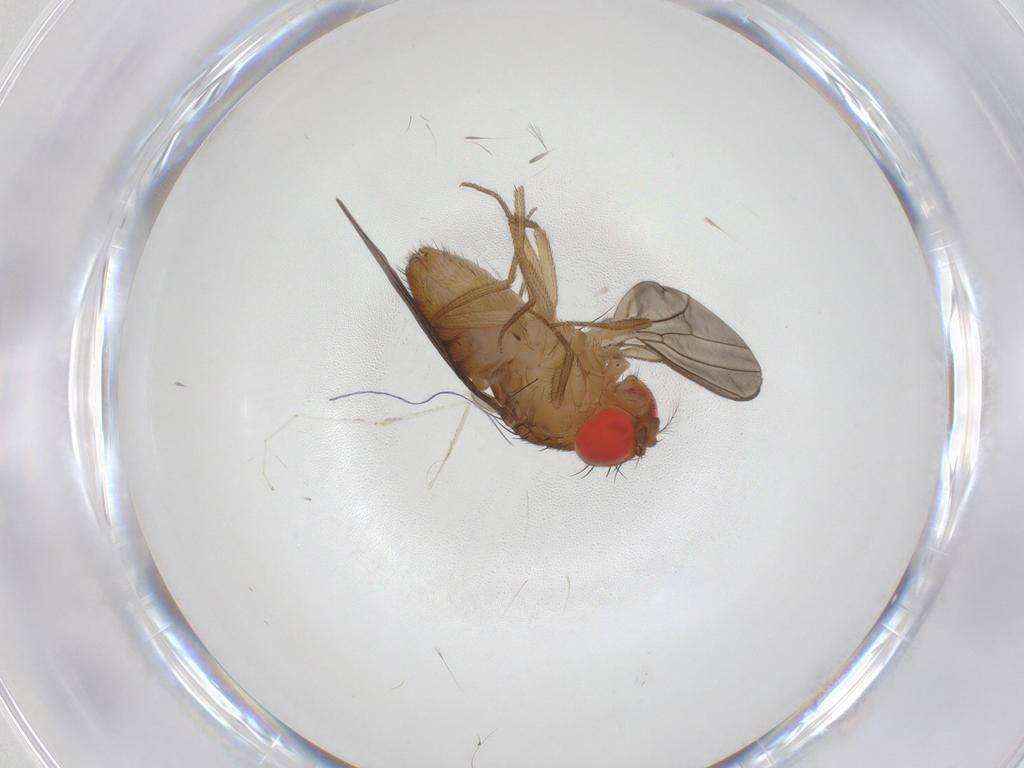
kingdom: Animalia
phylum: Arthropoda
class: Insecta
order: Diptera
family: Drosophilidae
